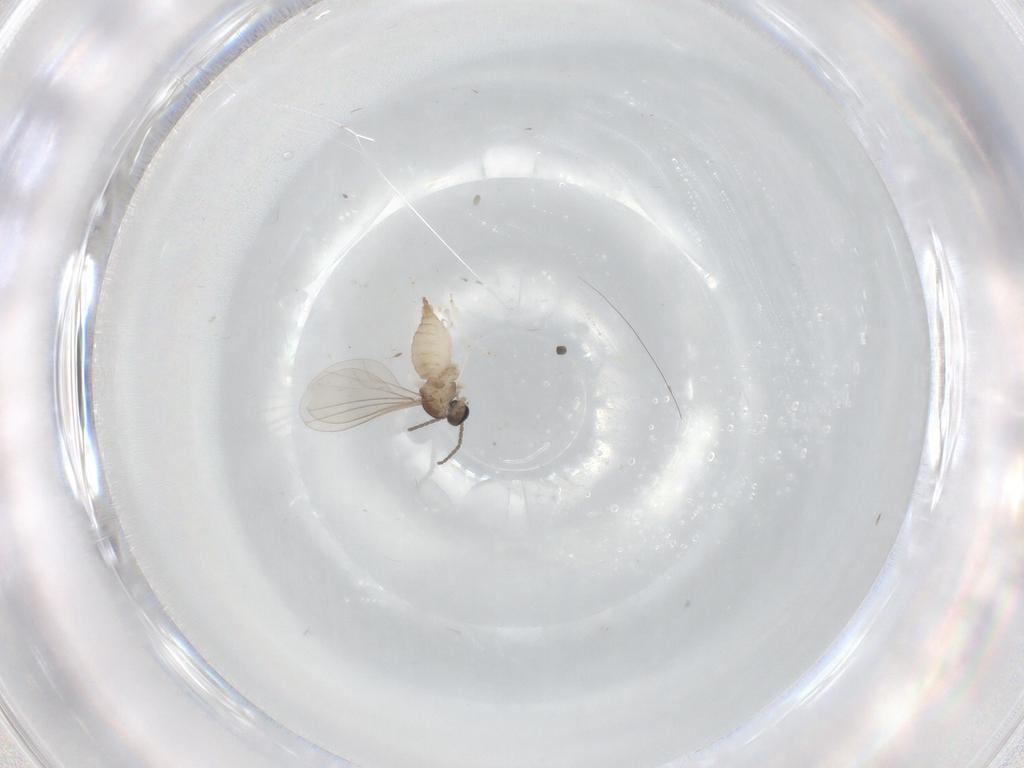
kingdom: Animalia
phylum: Arthropoda
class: Insecta
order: Diptera
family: Cecidomyiidae
